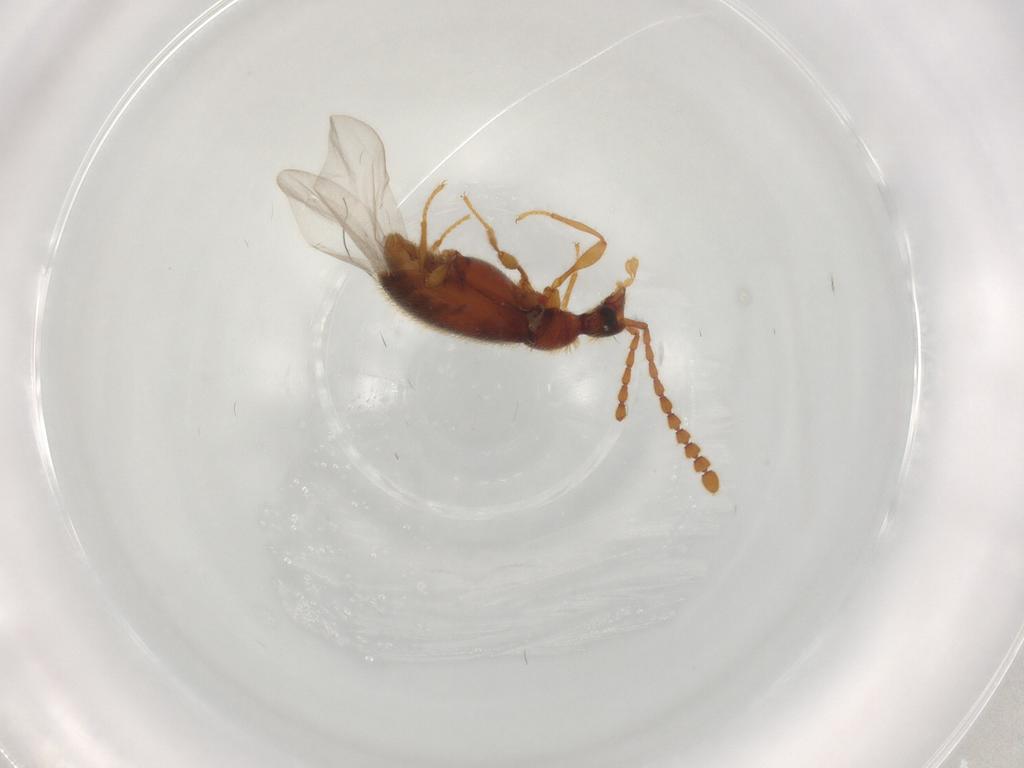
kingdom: Animalia
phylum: Arthropoda
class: Insecta
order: Coleoptera
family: Staphylinidae
